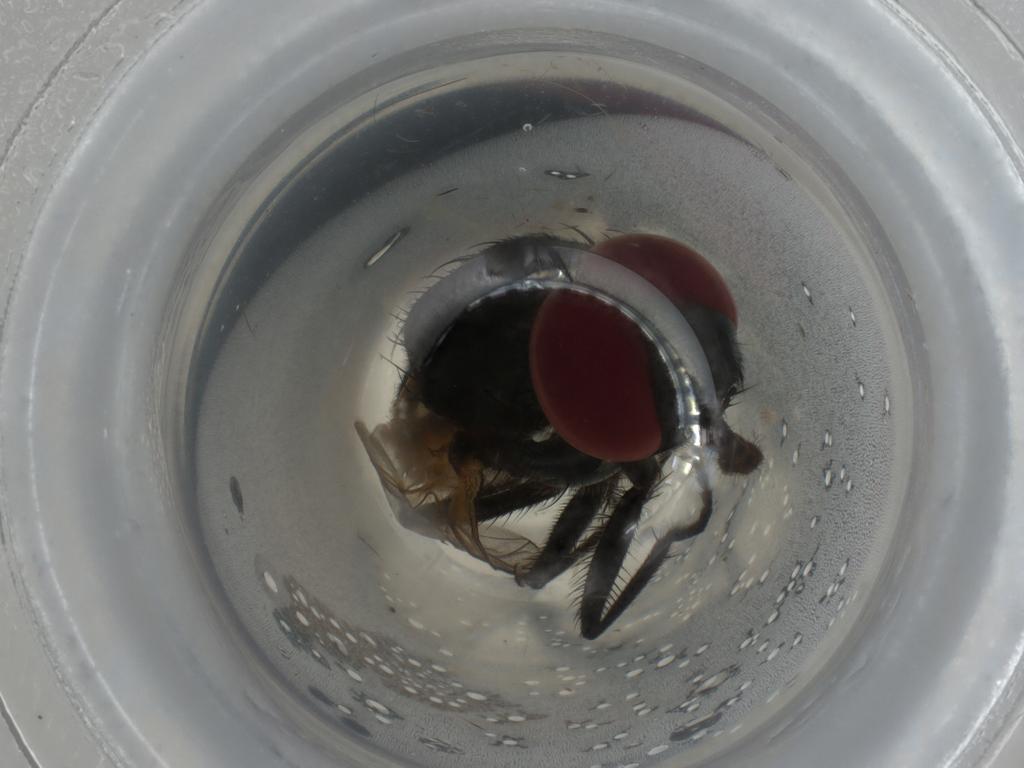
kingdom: Animalia
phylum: Arthropoda
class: Insecta
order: Diptera
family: Muscidae
